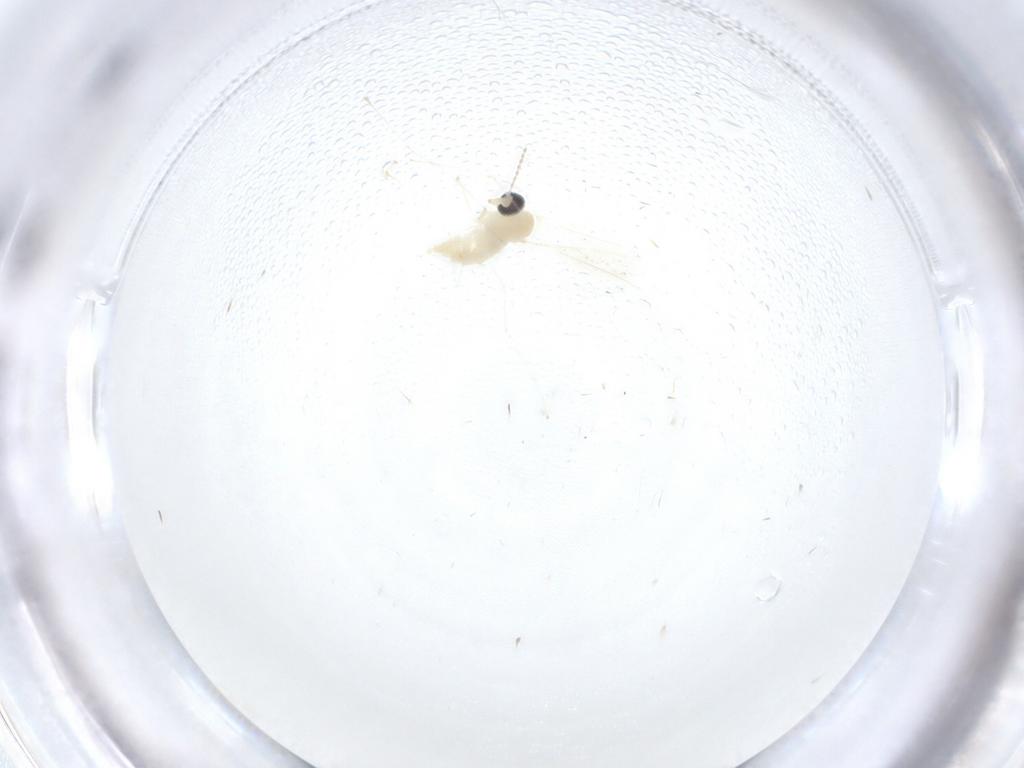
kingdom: Animalia
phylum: Arthropoda
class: Insecta
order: Diptera
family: Cecidomyiidae
